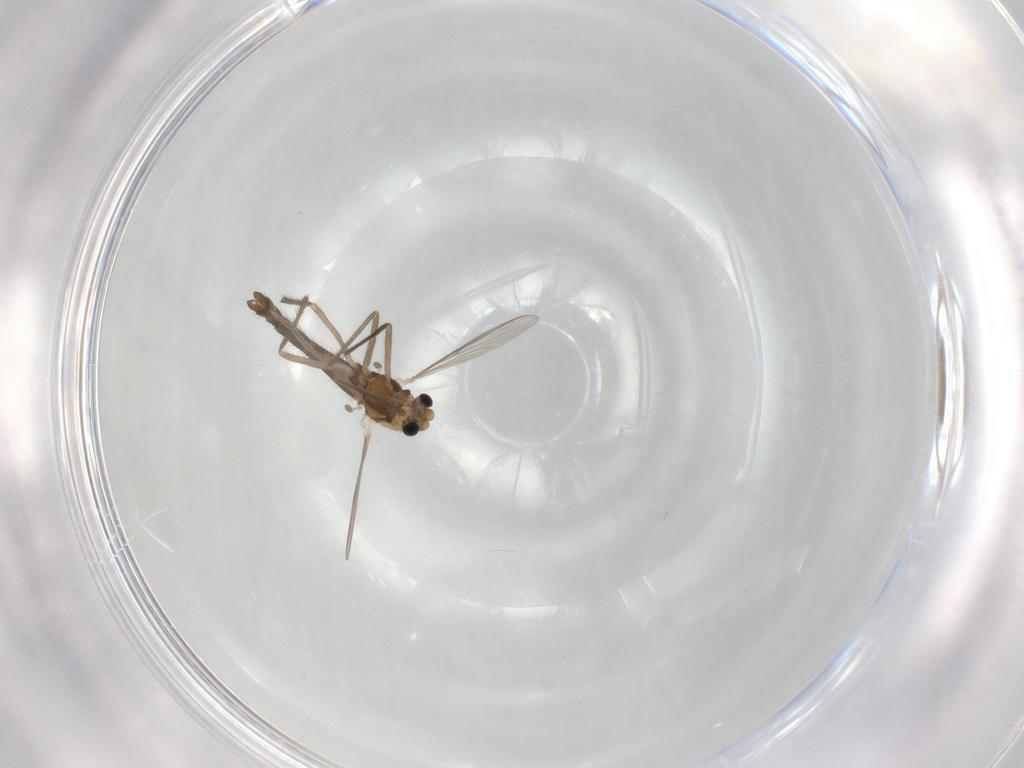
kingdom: Animalia
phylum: Arthropoda
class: Insecta
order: Diptera
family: Chironomidae
